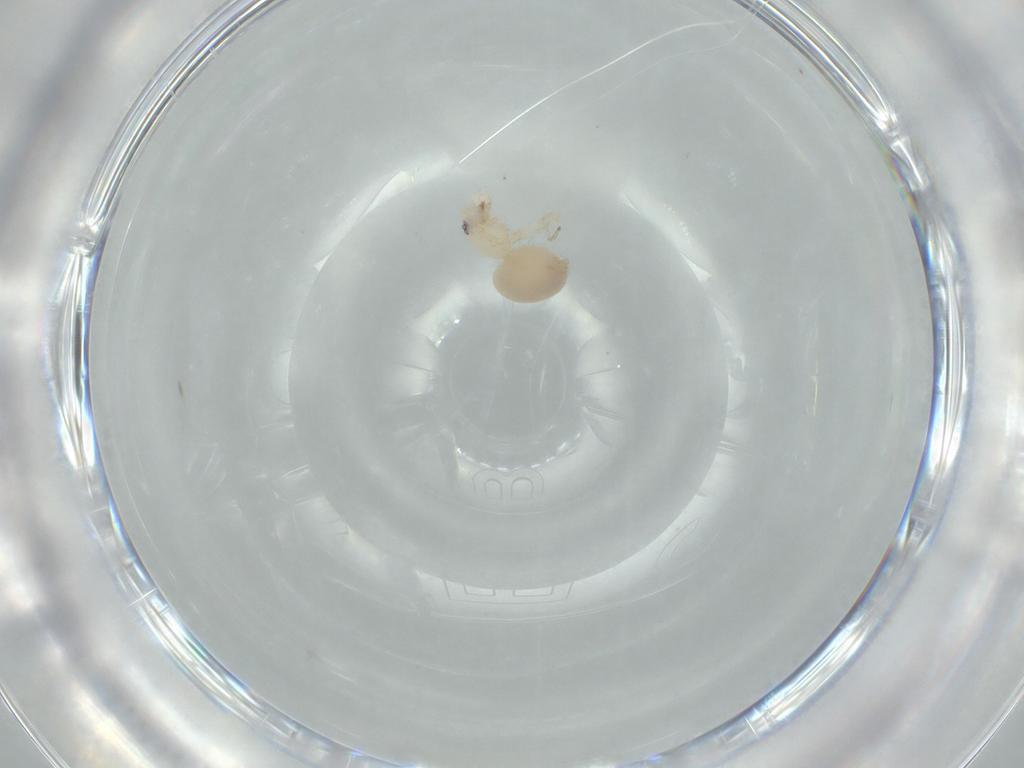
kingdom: Animalia
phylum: Arthropoda
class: Arachnida
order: Araneae
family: Oonopidae
